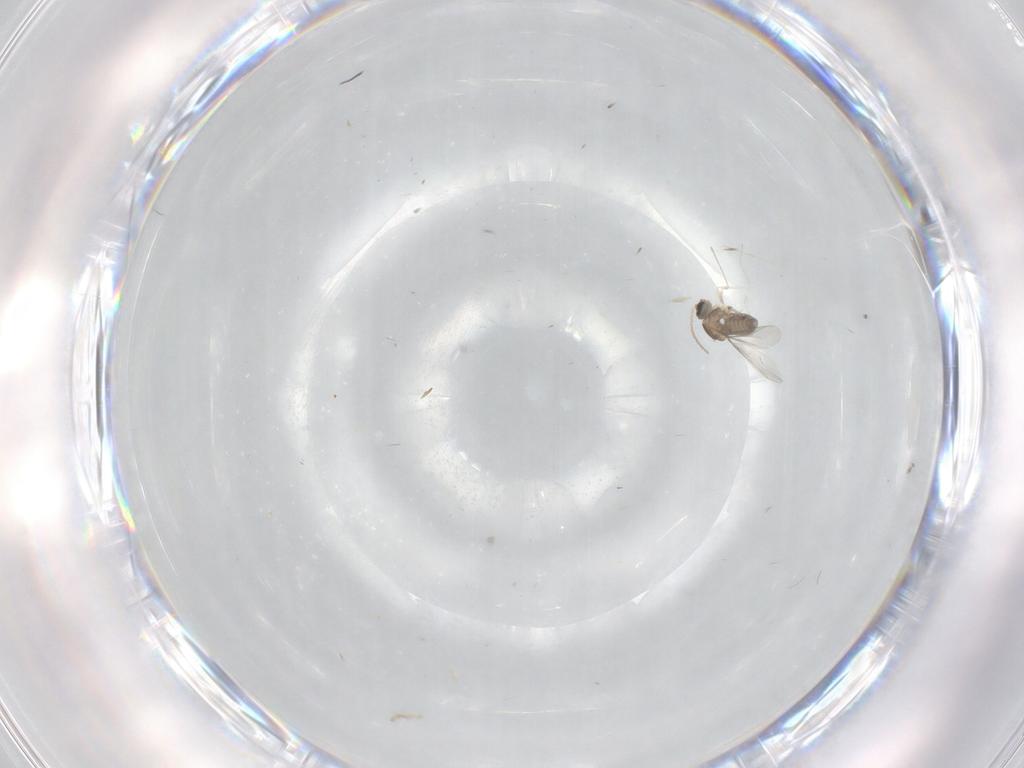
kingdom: Animalia
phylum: Arthropoda
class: Insecta
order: Diptera
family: Cecidomyiidae
